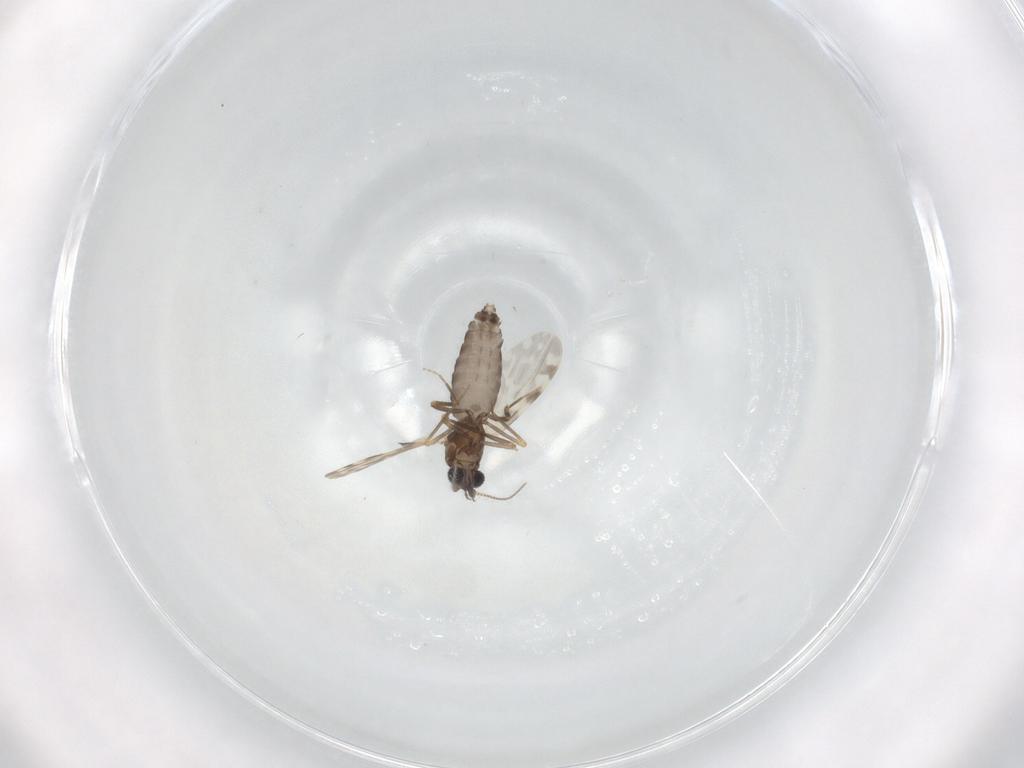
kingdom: Animalia
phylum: Arthropoda
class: Insecta
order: Diptera
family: Ceratopogonidae
